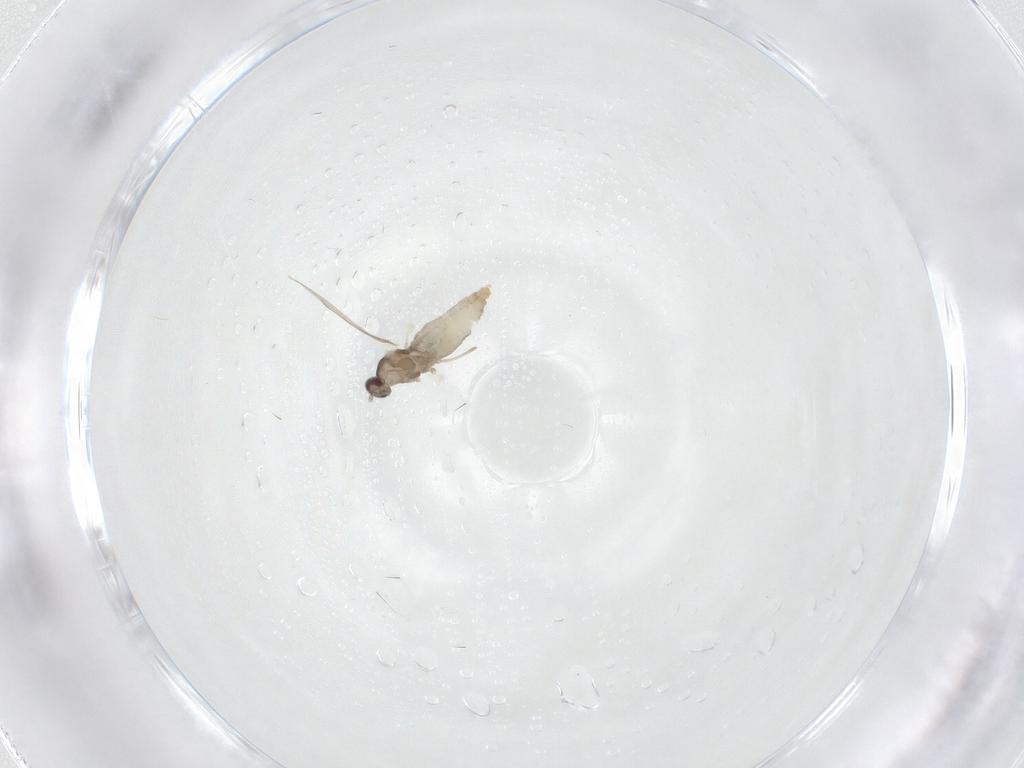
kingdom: Animalia
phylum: Arthropoda
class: Insecta
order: Diptera
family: Cecidomyiidae
